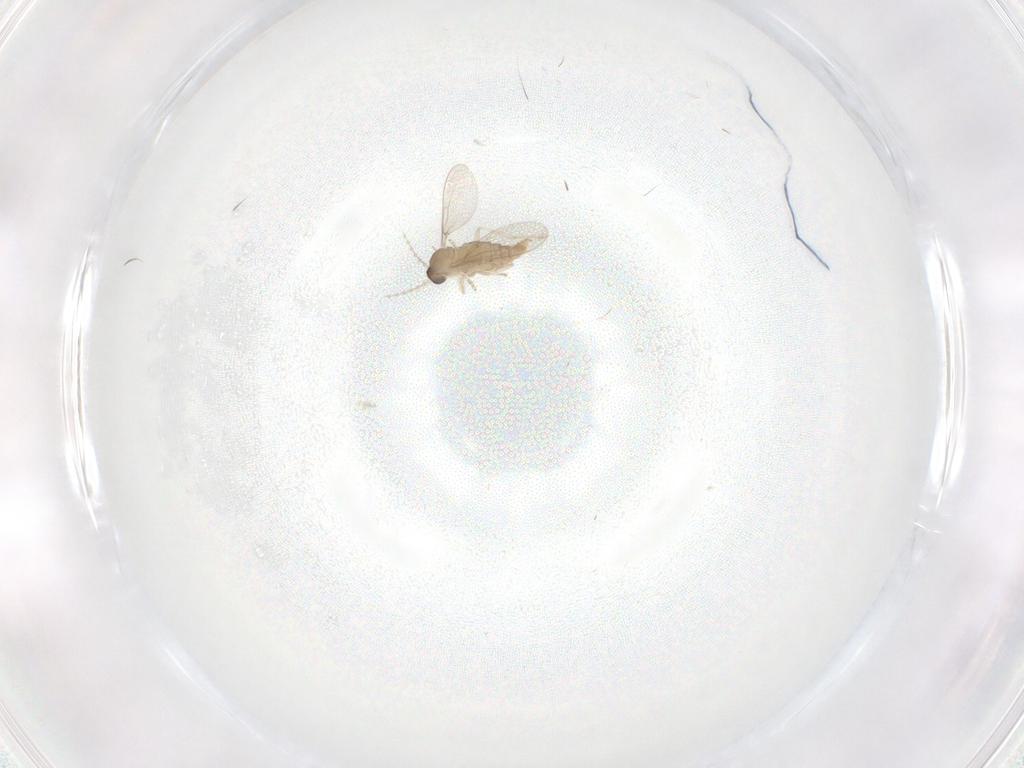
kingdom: Animalia
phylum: Arthropoda
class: Insecta
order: Diptera
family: Cecidomyiidae
